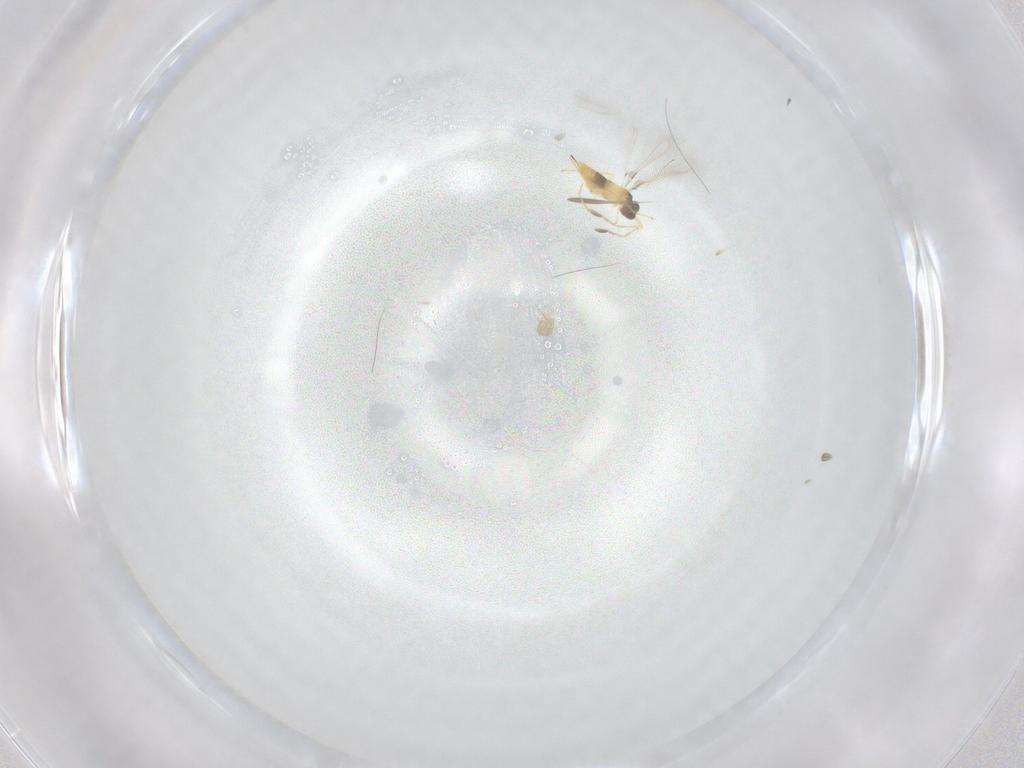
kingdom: Animalia
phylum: Arthropoda
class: Insecta
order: Hymenoptera
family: Mymaridae
